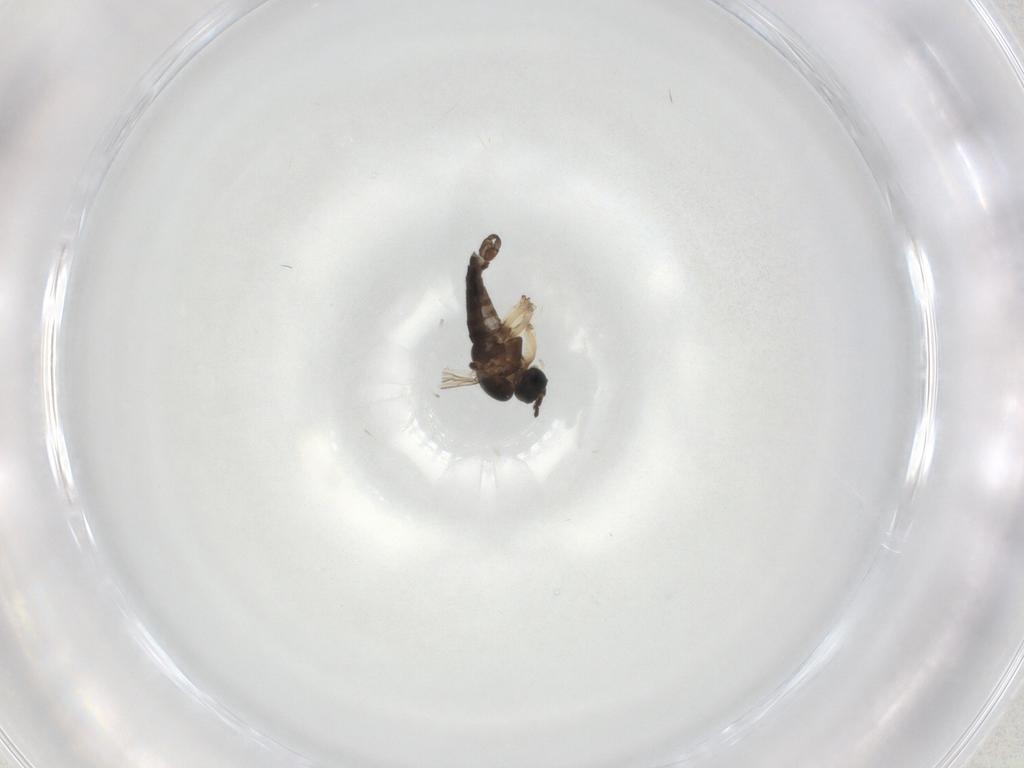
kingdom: Animalia
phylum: Arthropoda
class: Insecta
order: Diptera
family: Sciaridae
